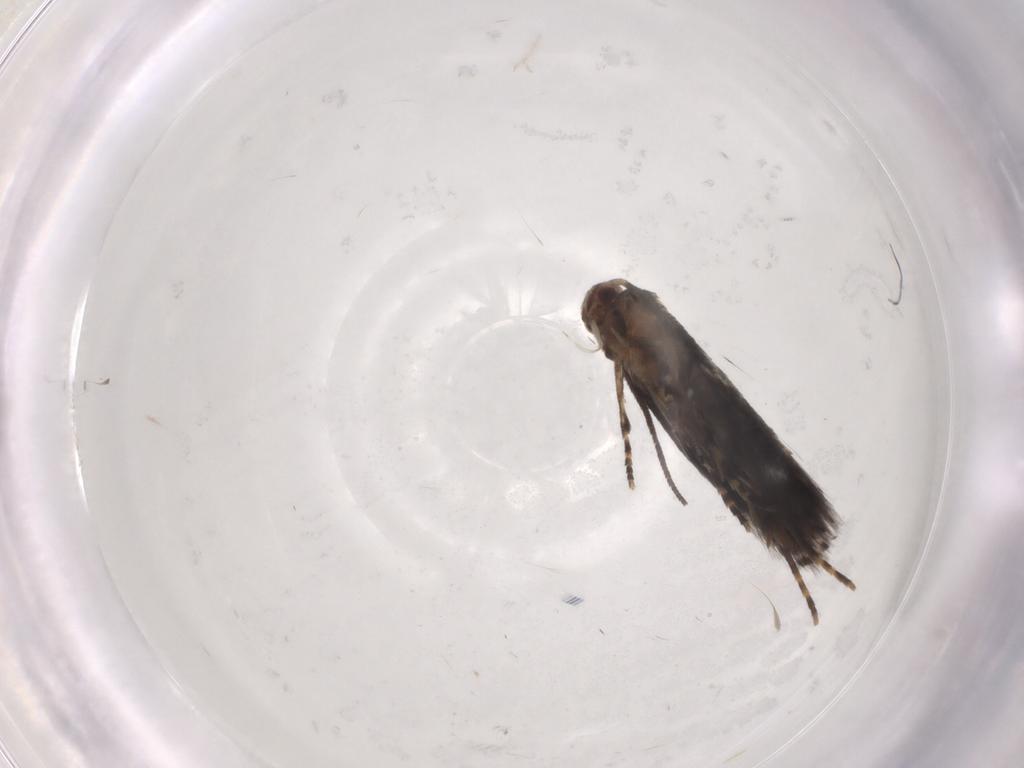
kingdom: Animalia
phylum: Arthropoda
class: Insecta
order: Lepidoptera
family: Elachistidae
